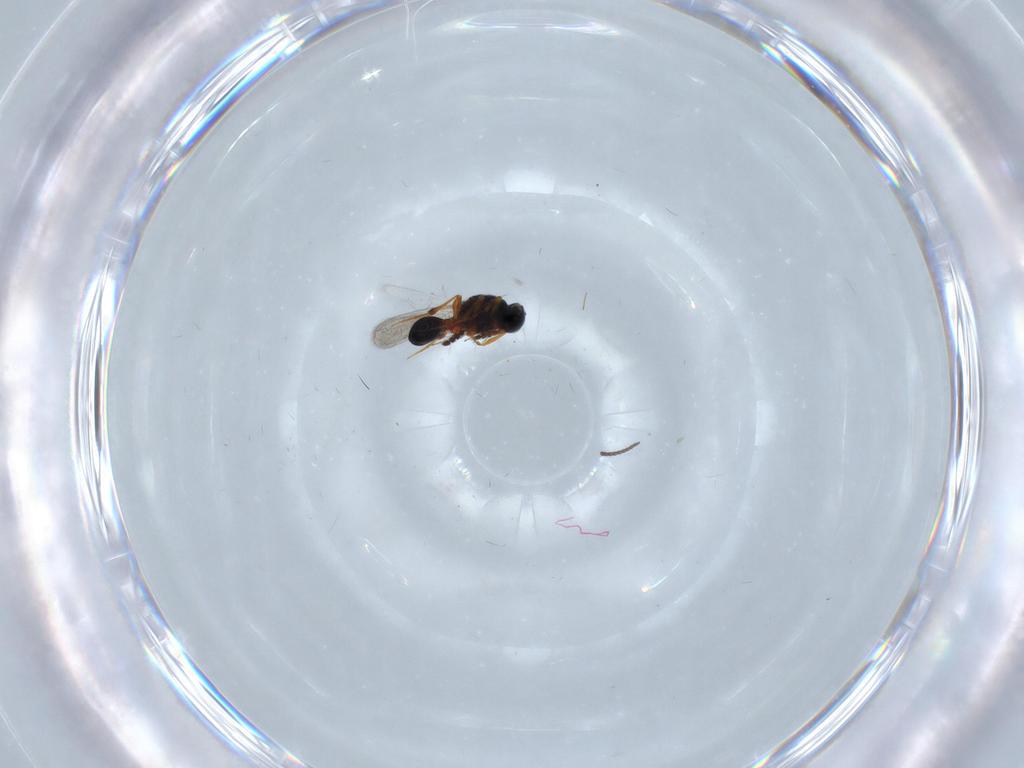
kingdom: Animalia
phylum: Arthropoda
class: Insecta
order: Hymenoptera
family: Platygastridae
